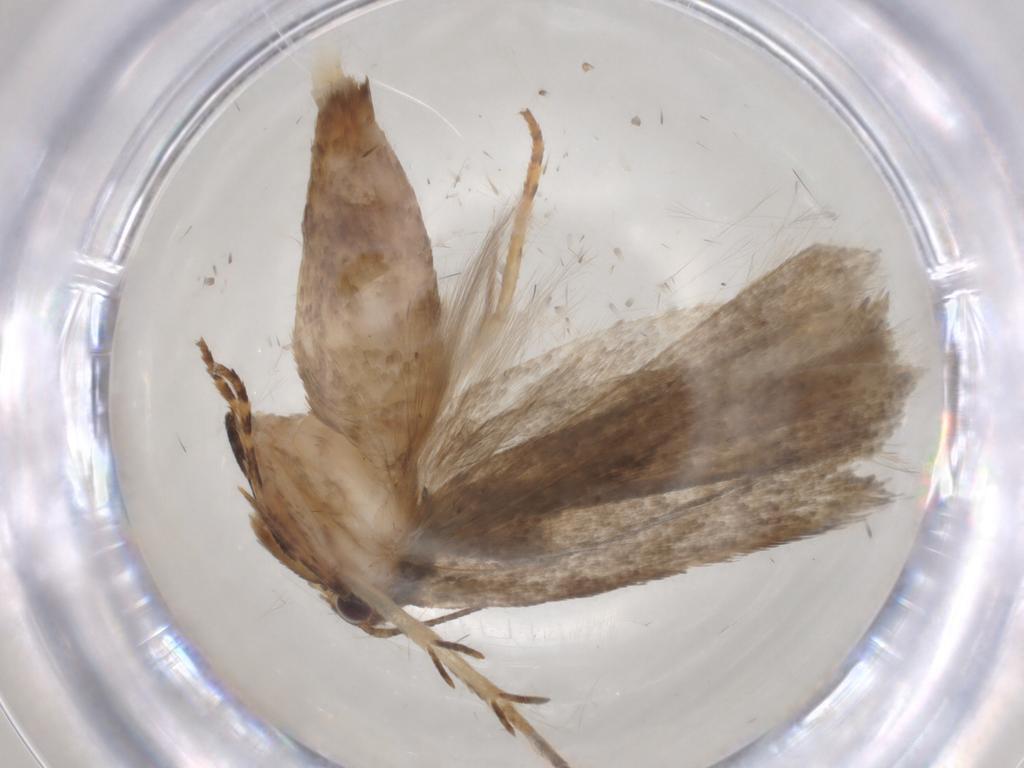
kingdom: Animalia
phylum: Arthropoda
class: Insecta
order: Lepidoptera
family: Gelechiidae
